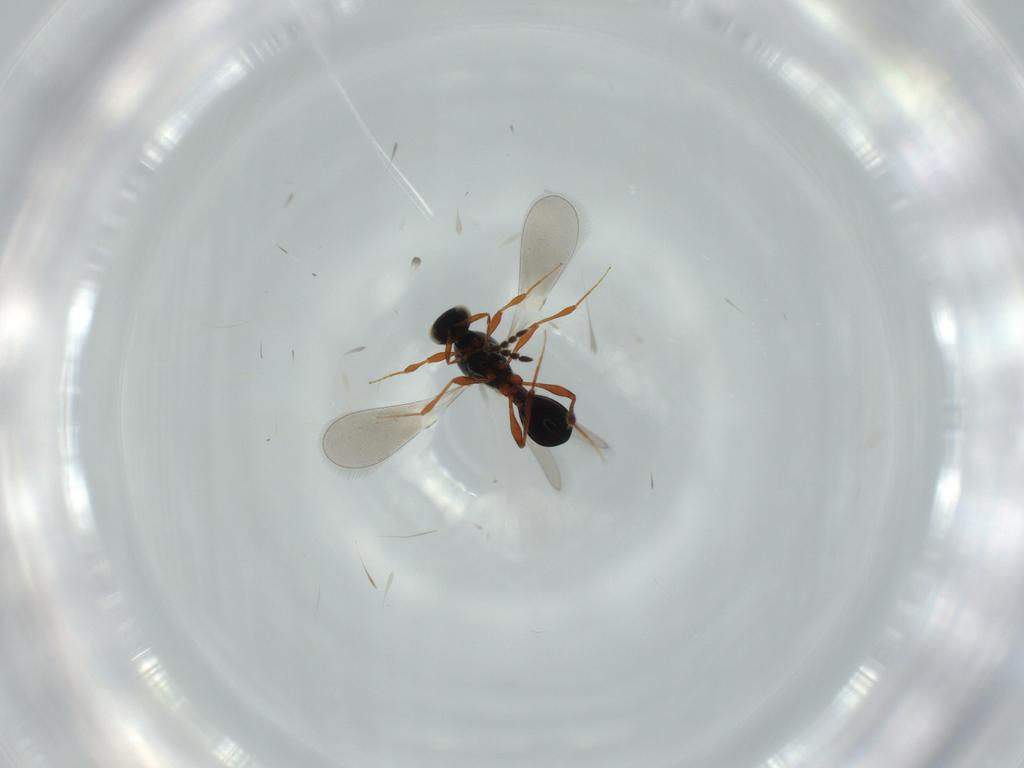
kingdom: Animalia
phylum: Arthropoda
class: Insecta
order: Hymenoptera
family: Platygastridae
